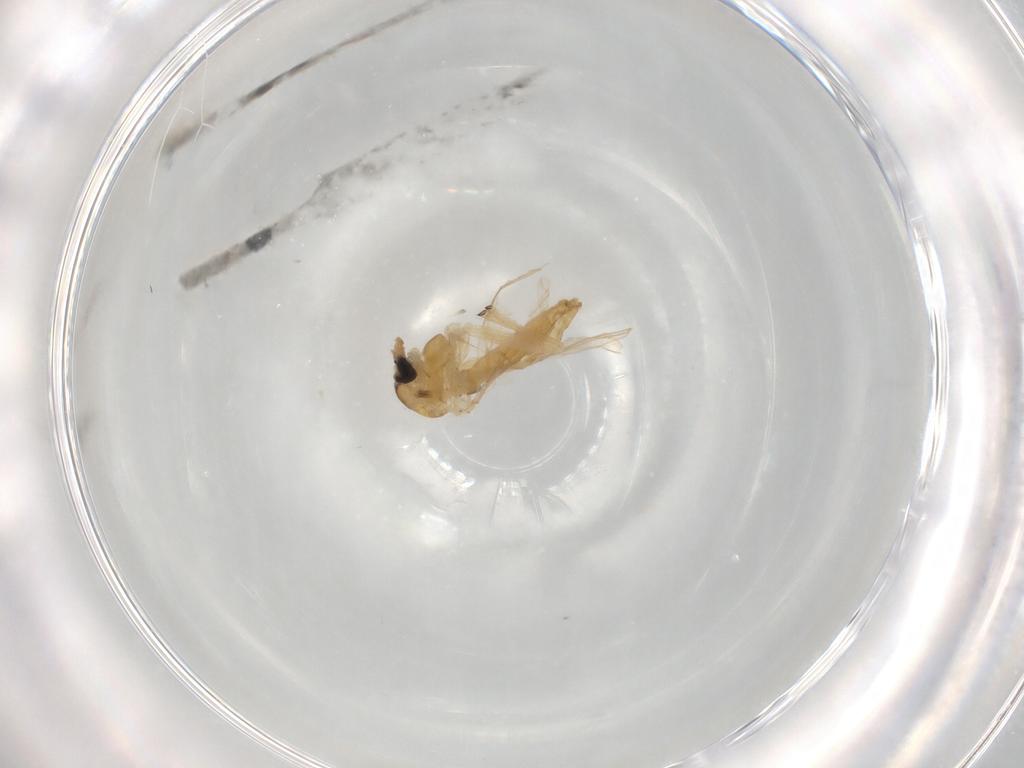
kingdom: Animalia
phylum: Arthropoda
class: Insecta
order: Diptera
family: Chironomidae
